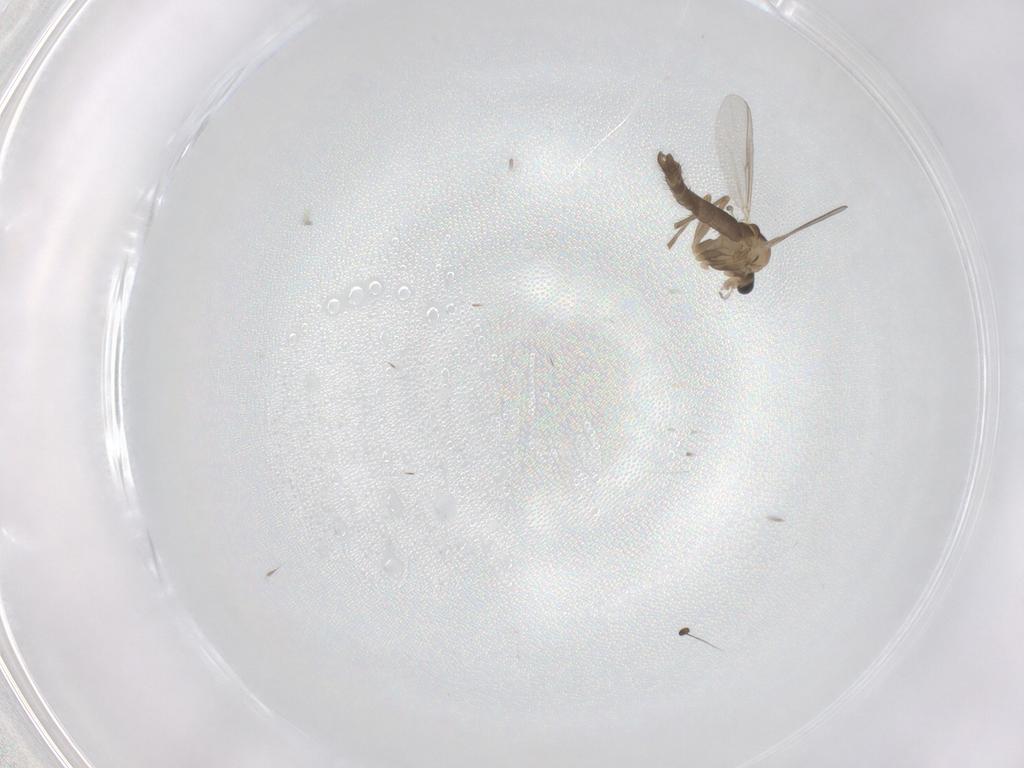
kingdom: Animalia
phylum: Arthropoda
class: Insecta
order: Diptera
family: Chironomidae
